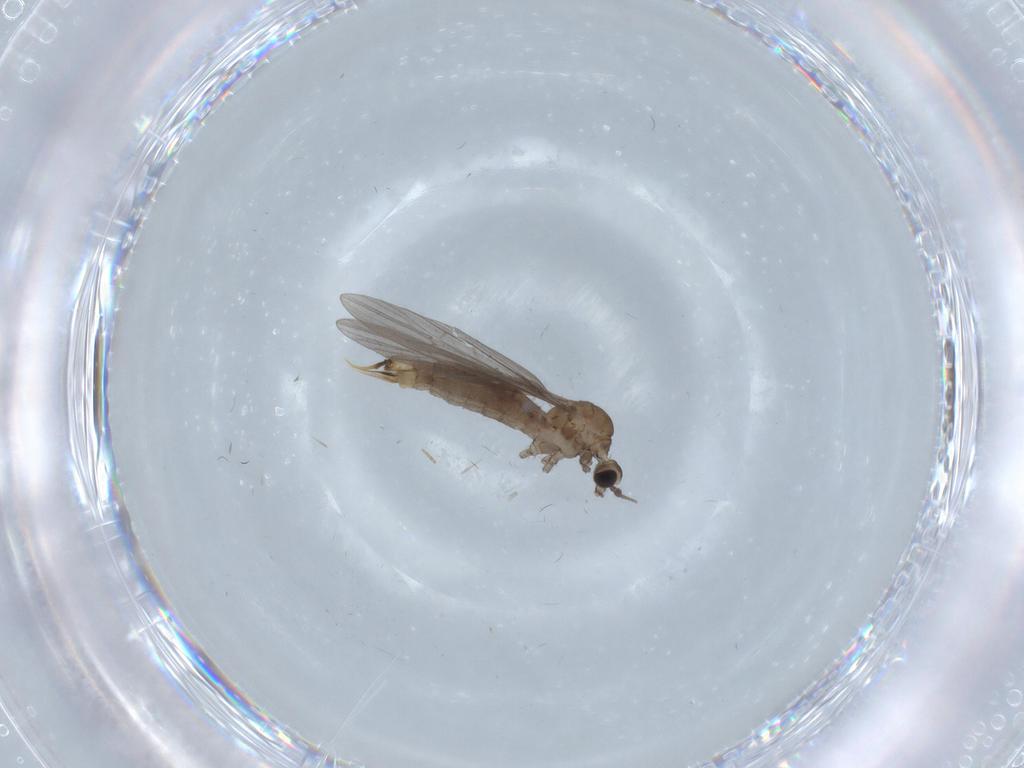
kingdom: Animalia
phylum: Arthropoda
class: Insecta
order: Diptera
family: Limoniidae
